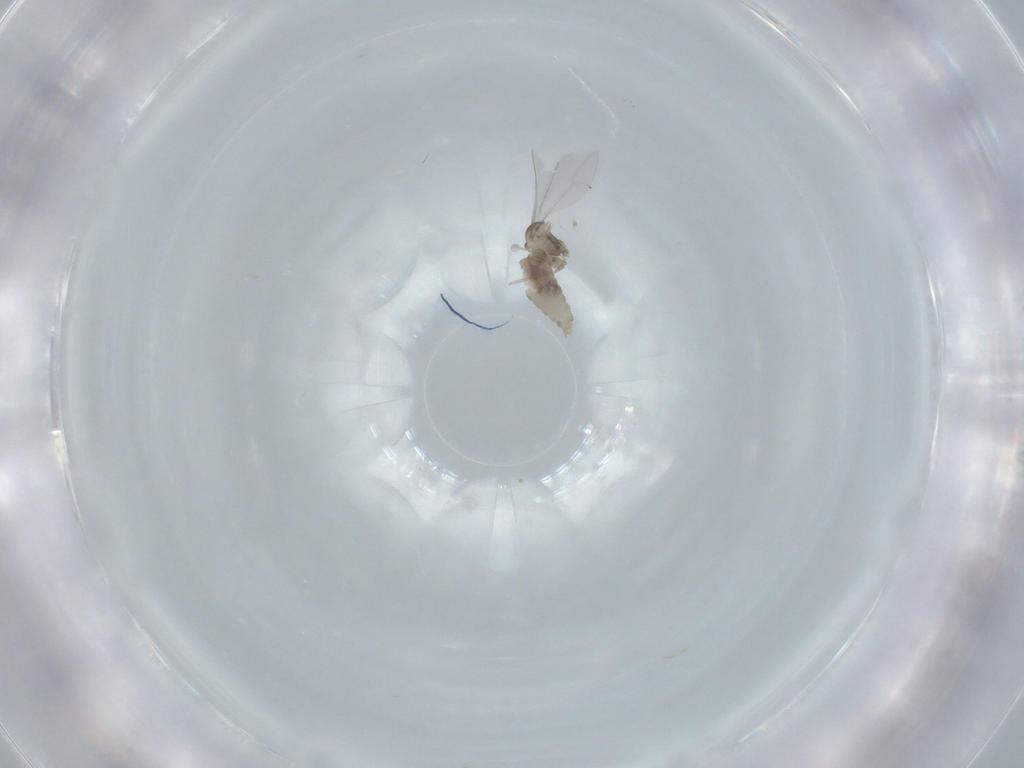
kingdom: Animalia
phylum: Arthropoda
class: Insecta
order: Diptera
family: Cecidomyiidae
